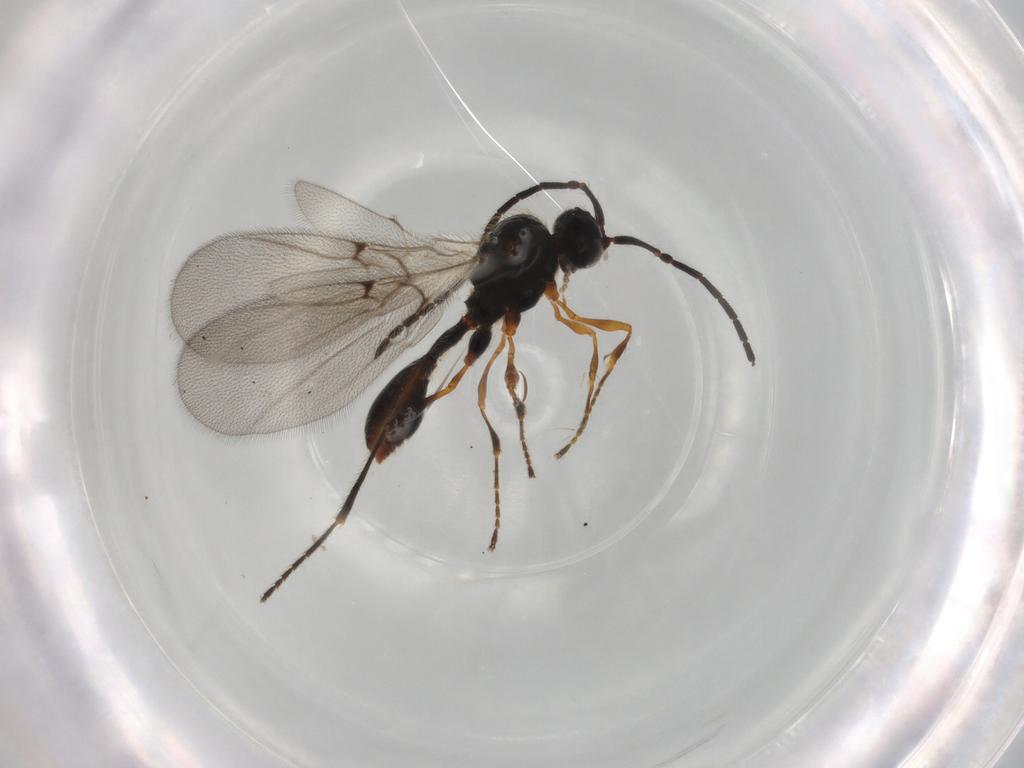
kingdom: Animalia
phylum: Arthropoda
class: Insecta
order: Hymenoptera
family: Diapriidae
